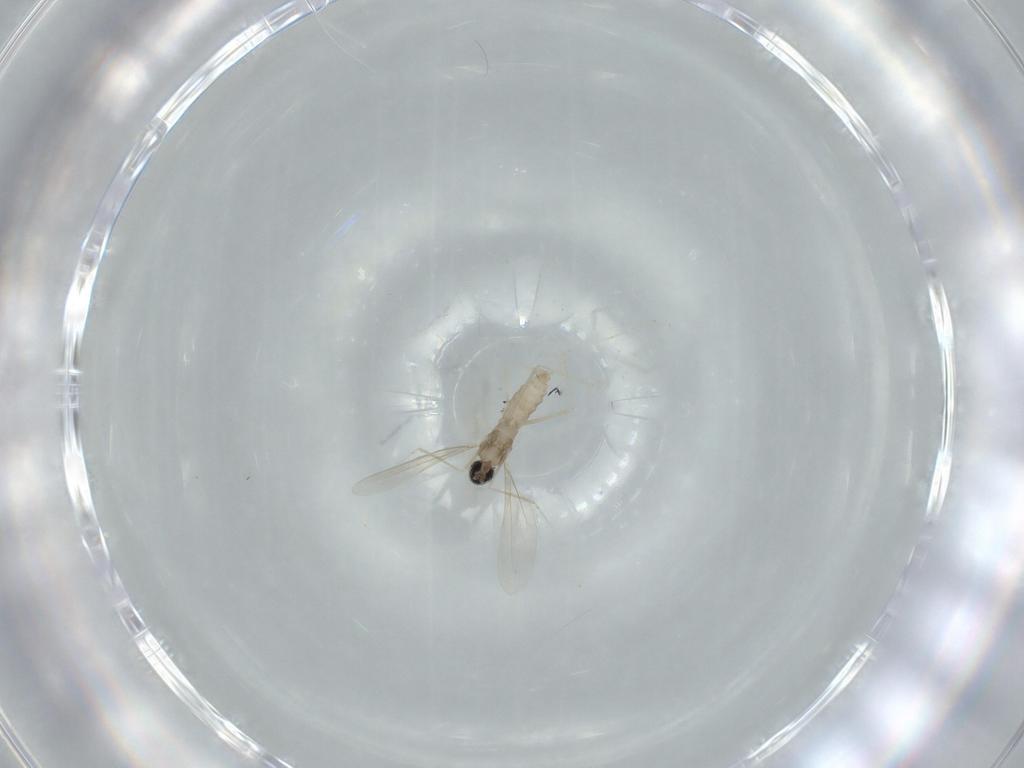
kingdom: Animalia
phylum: Arthropoda
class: Insecta
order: Diptera
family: Cecidomyiidae
